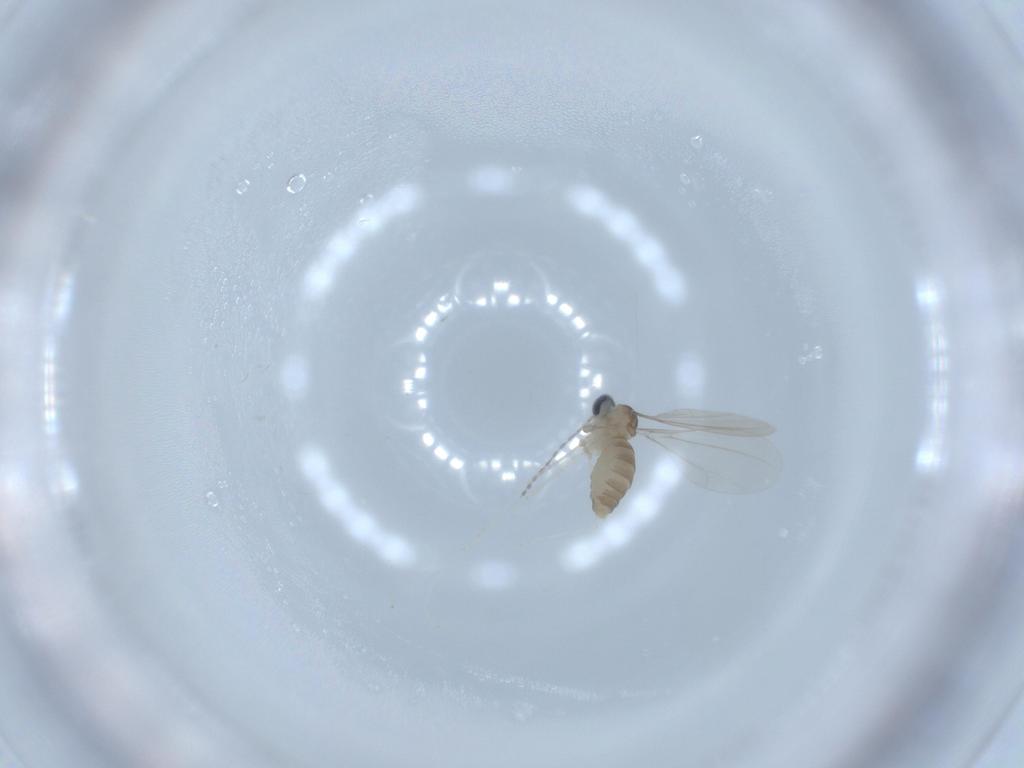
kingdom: Animalia
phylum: Arthropoda
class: Insecta
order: Diptera
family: Cecidomyiidae
